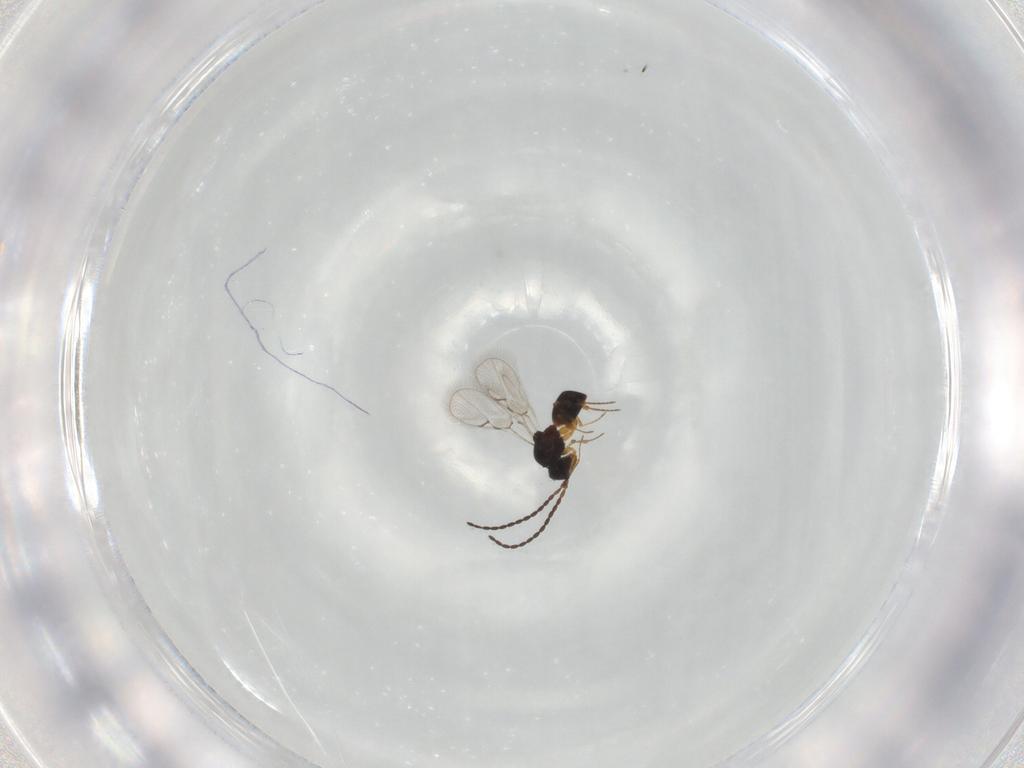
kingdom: Animalia
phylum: Arthropoda
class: Insecta
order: Hymenoptera
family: Figitidae
